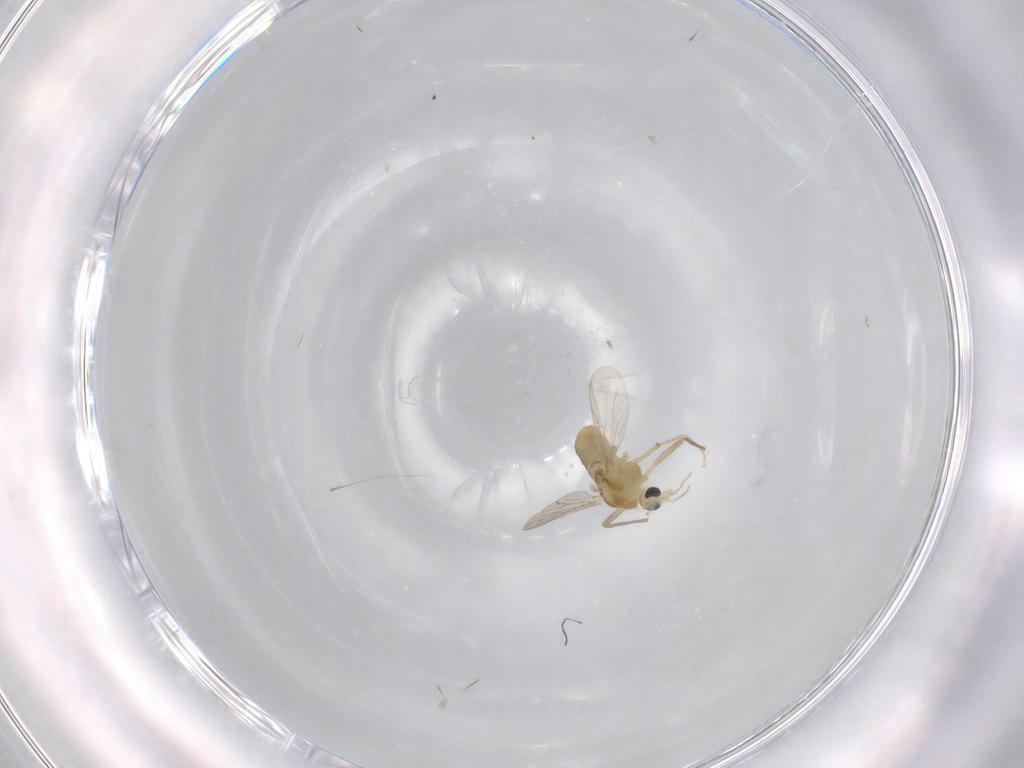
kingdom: Animalia
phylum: Arthropoda
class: Insecta
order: Diptera
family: Chironomidae
